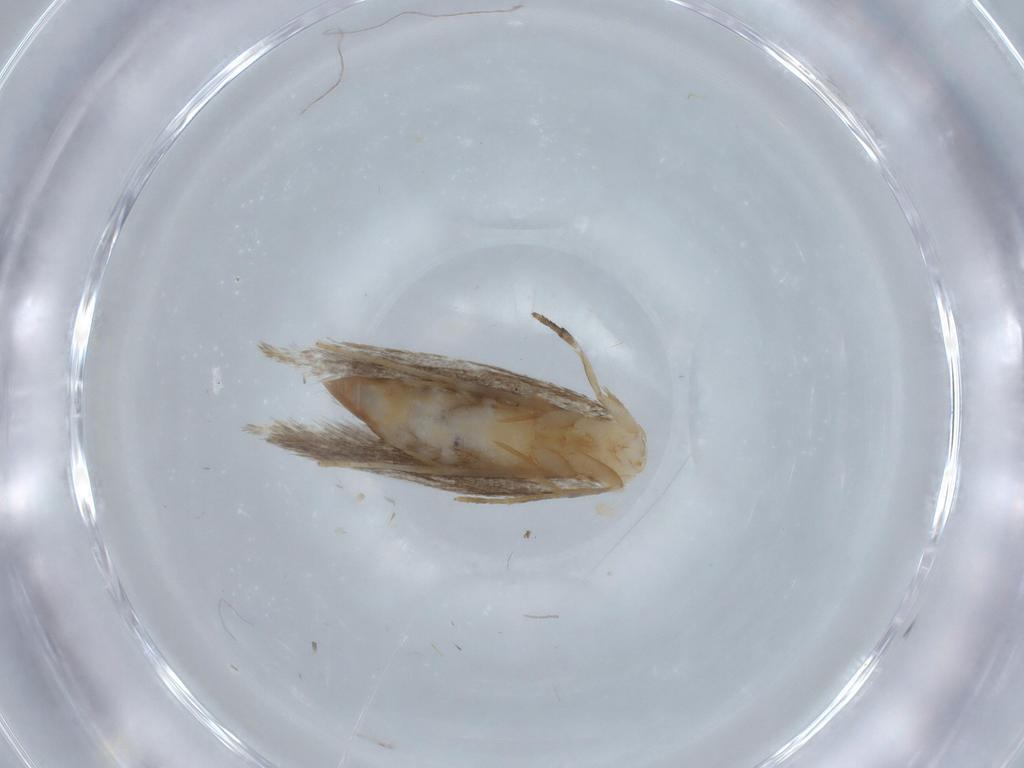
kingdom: Animalia
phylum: Arthropoda
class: Insecta
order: Lepidoptera
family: Tineidae
